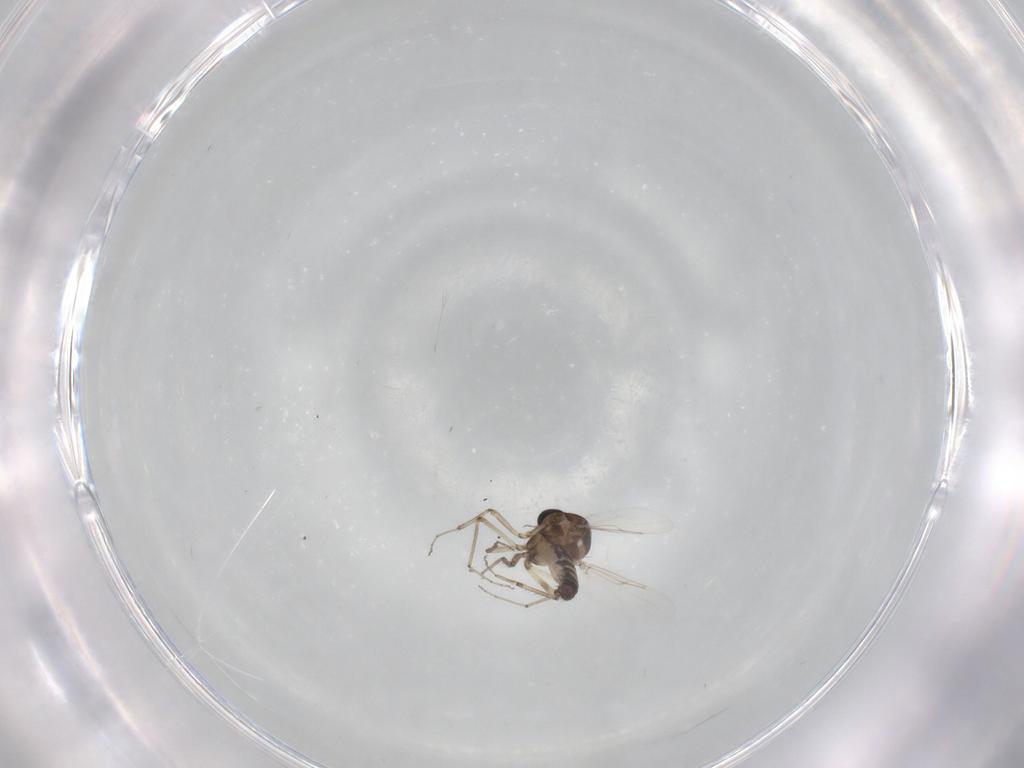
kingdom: Animalia
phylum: Arthropoda
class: Insecta
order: Diptera
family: Ceratopogonidae
